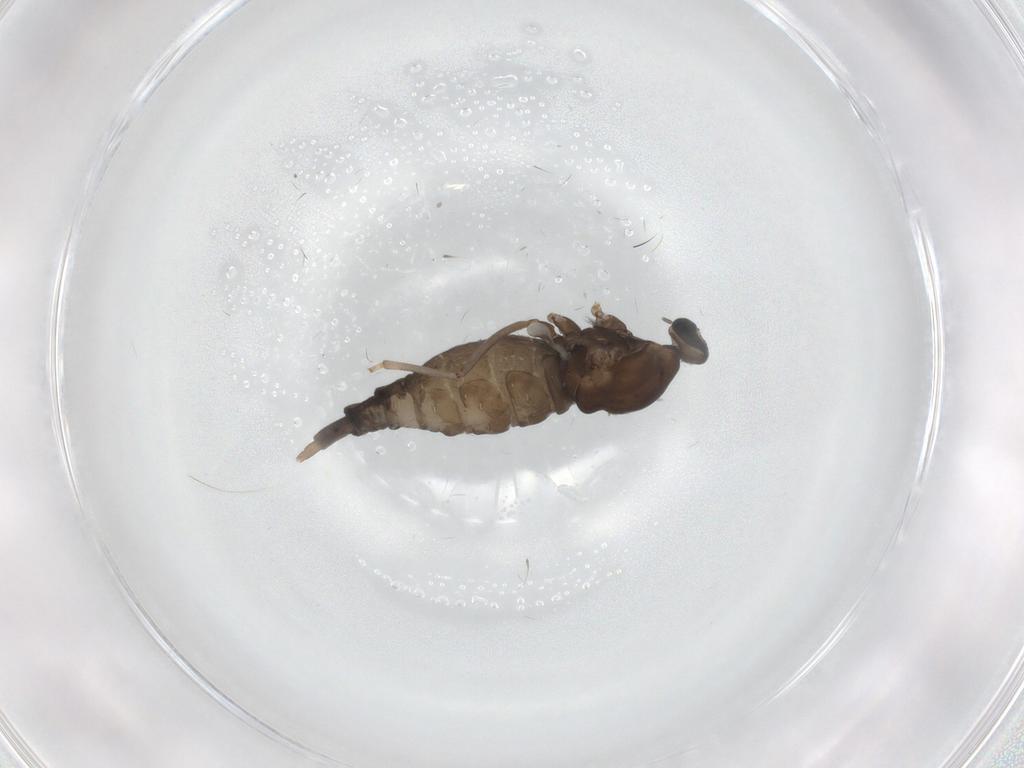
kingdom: Animalia
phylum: Arthropoda
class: Insecta
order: Diptera
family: Cecidomyiidae
